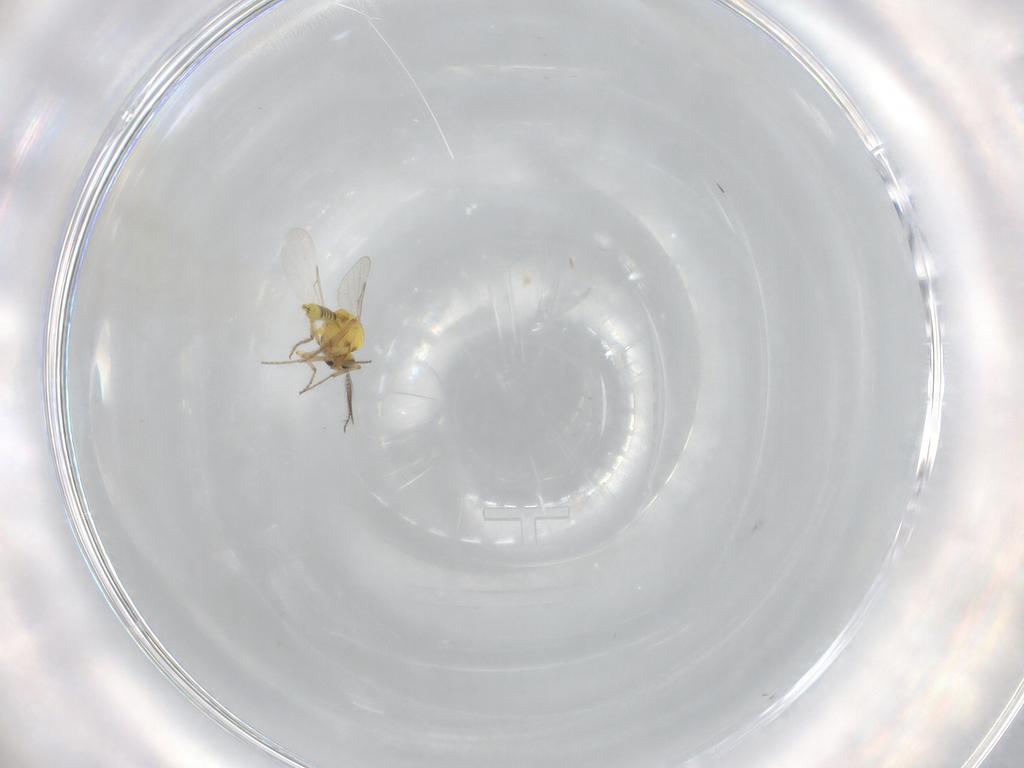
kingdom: Animalia
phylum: Arthropoda
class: Insecta
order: Diptera
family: Ceratopogonidae
